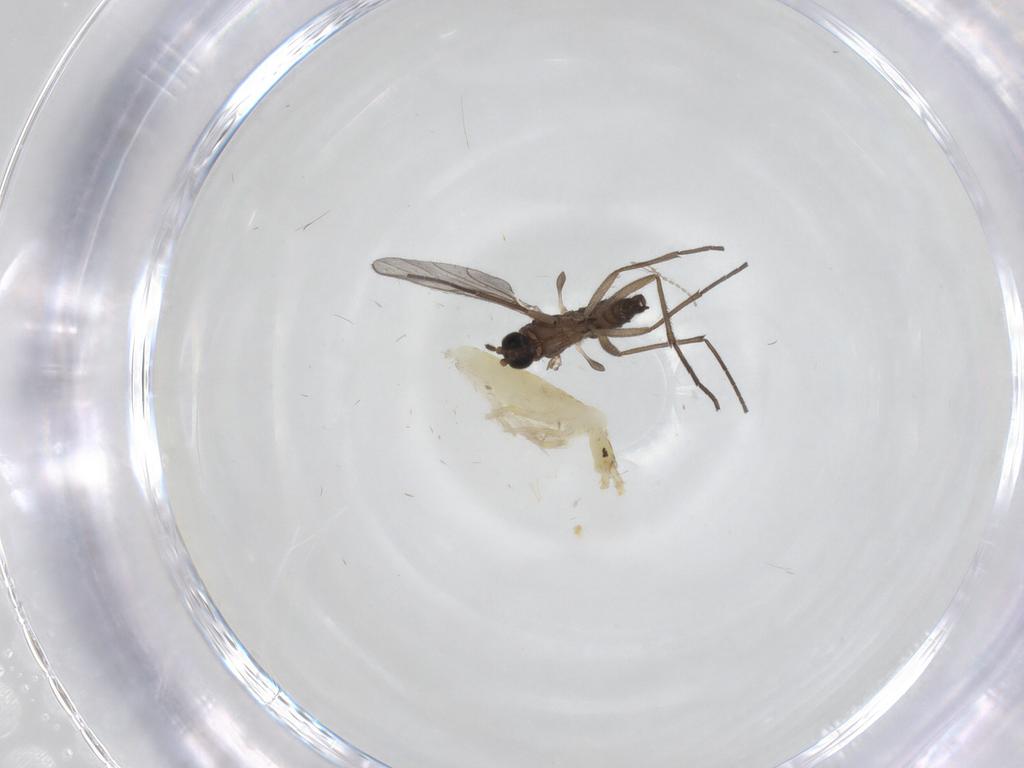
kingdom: Animalia
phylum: Arthropoda
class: Collembola
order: Entomobryomorpha
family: Entomobryidae
